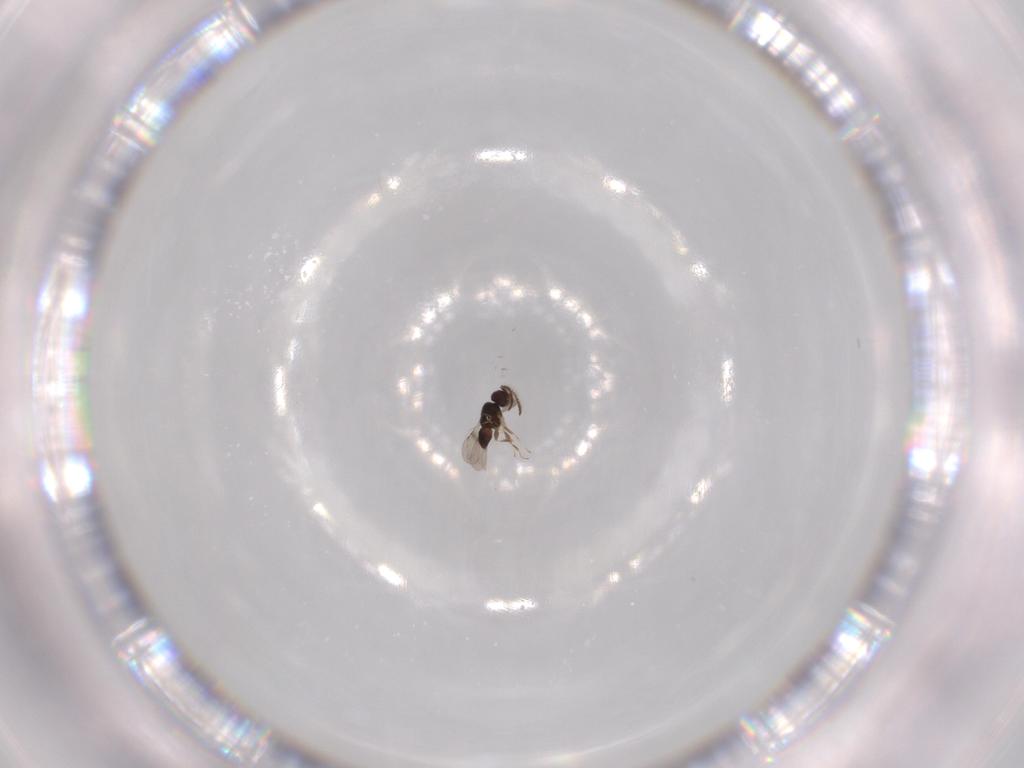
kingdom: Animalia
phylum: Arthropoda
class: Insecta
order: Hymenoptera
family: Ceraphronidae
